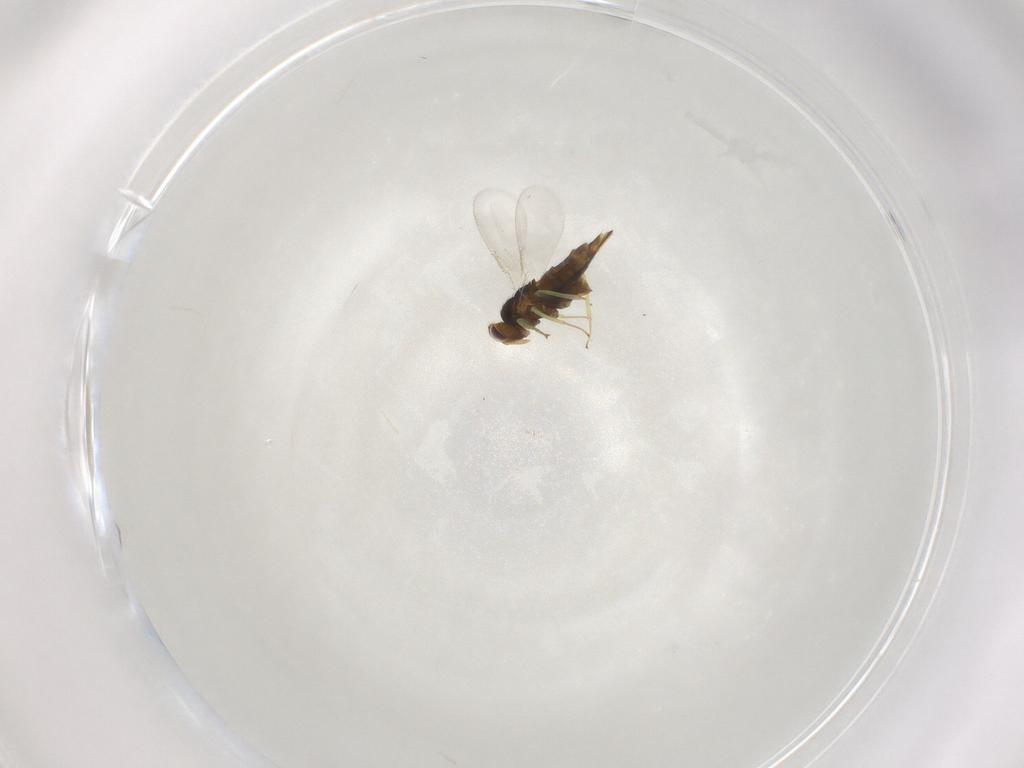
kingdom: Animalia
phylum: Arthropoda
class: Insecta
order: Hymenoptera
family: Aphelinidae
